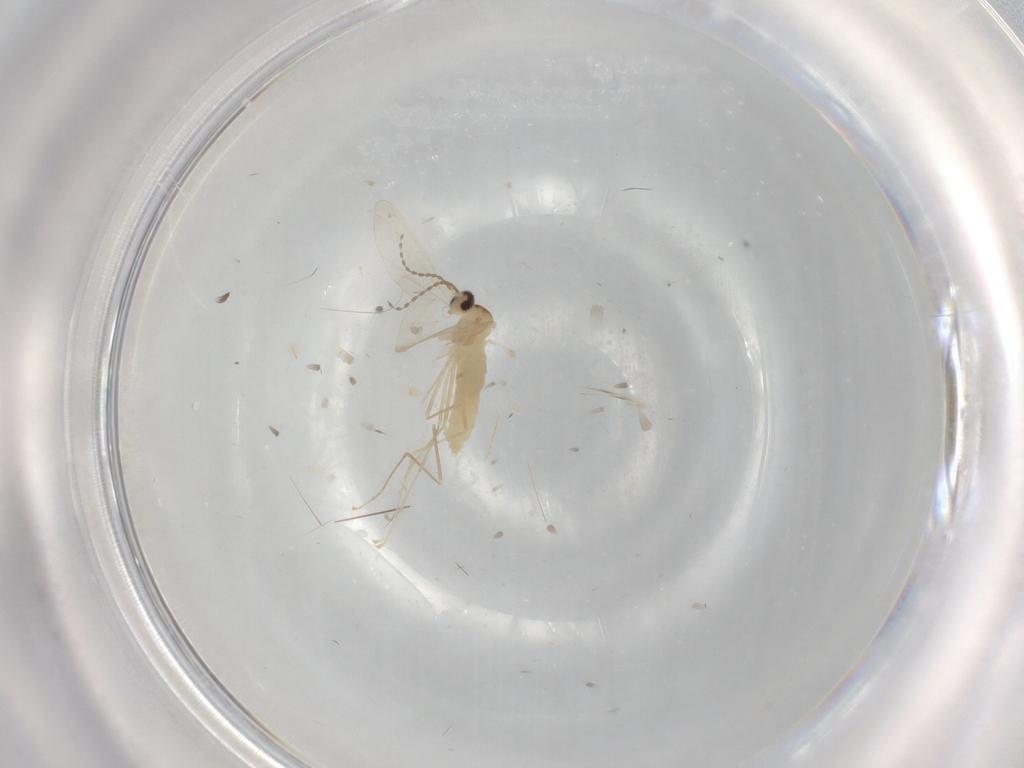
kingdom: Animalia
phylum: Arthropoda
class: Insecta
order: Diptera
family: Cecidomyiidae
